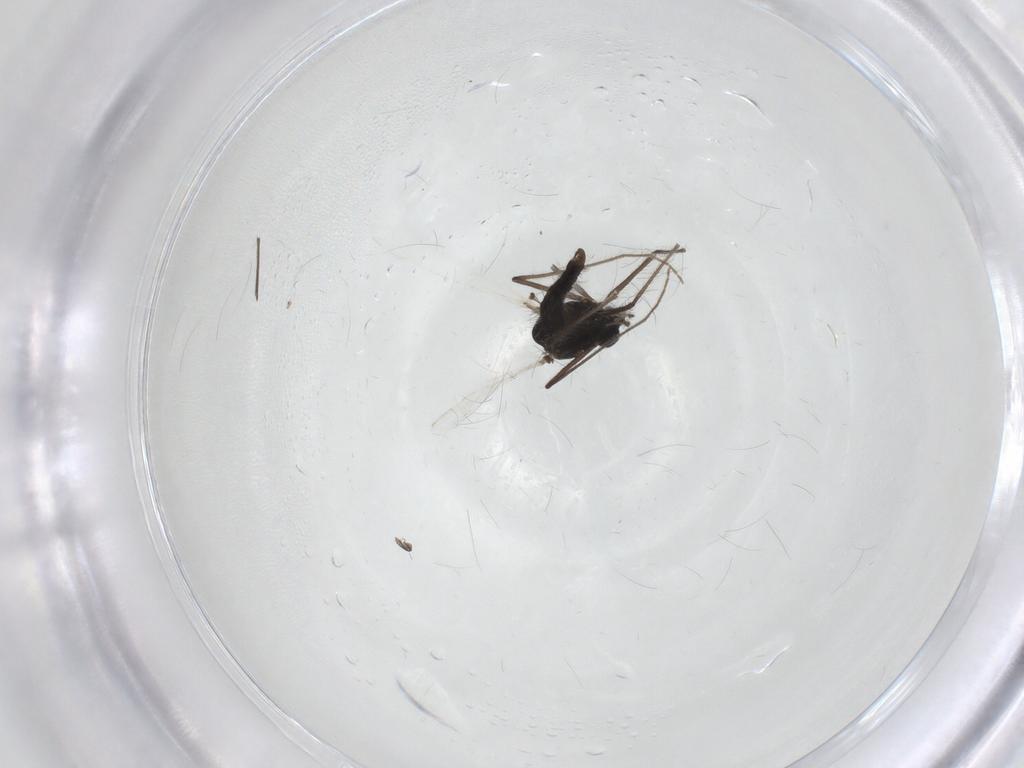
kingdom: Animalia
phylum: Arthropoda
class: Insecta
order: Diptera
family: Chironomidae
